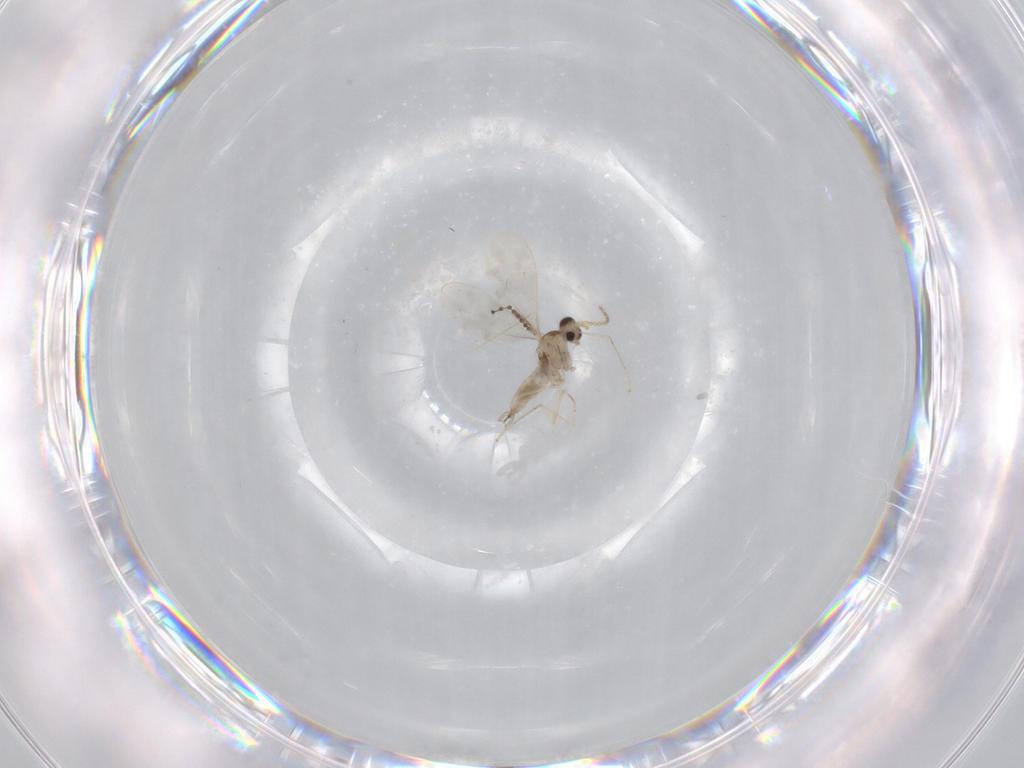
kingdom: Animalia
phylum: Arthropoda
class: Insecta
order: Diptera
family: Cecidomyiidae
